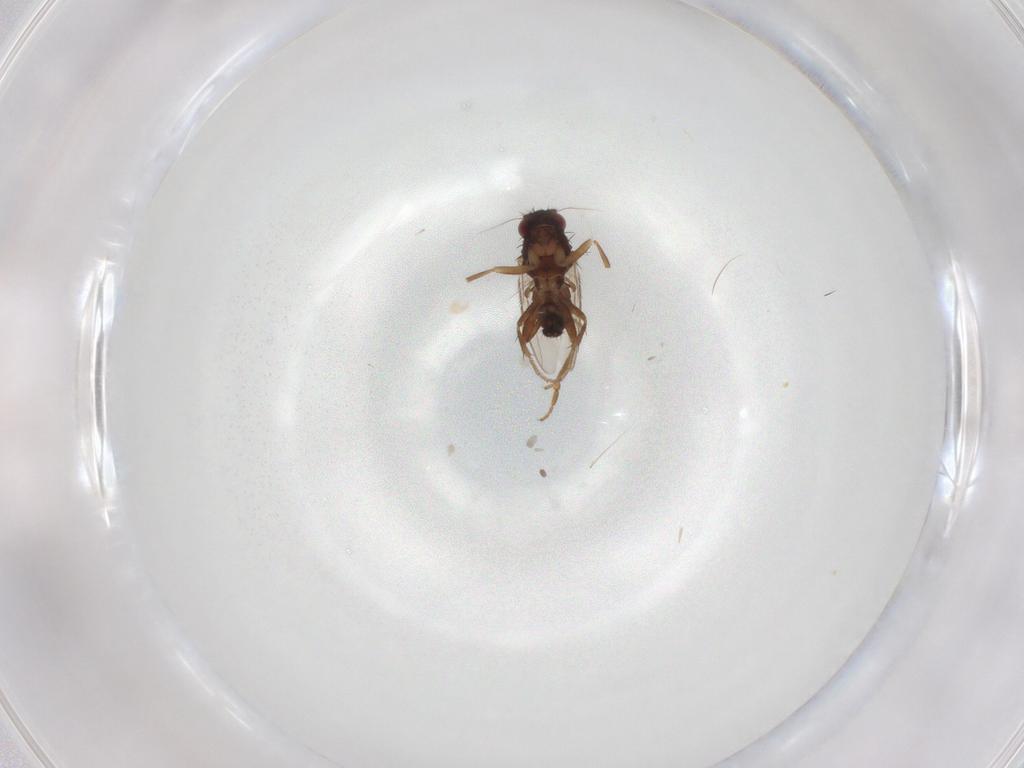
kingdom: Animalia
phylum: Arthropoda
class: Insecta
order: Diptera
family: Sphaeroceridae
